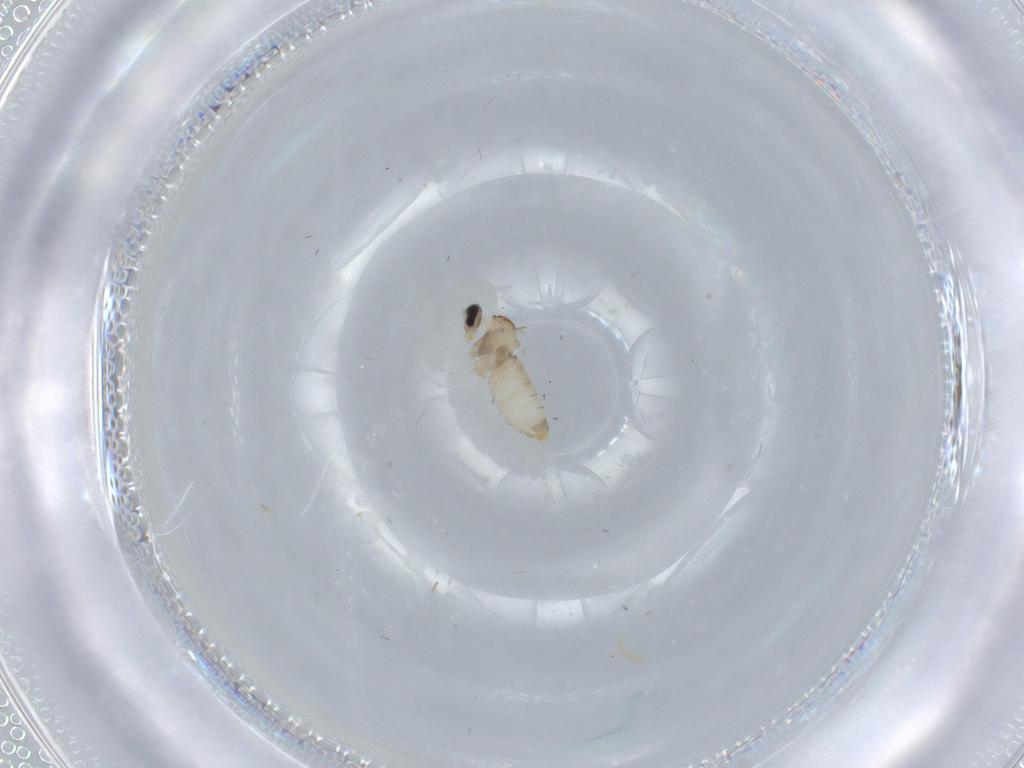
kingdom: Animalia
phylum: Arthropoda
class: Insecta
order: Diptera
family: Cecidomyiidae
